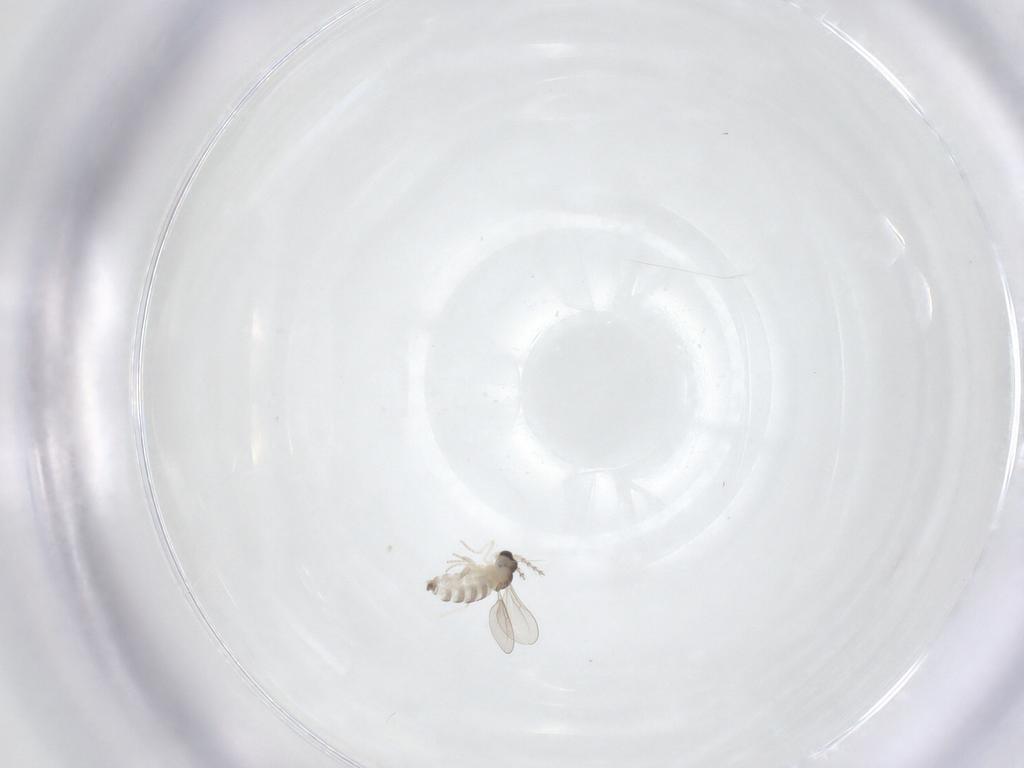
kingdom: Animalia
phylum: Arthropoda
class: Insecta
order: Diptera
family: Cecidomyiidae
